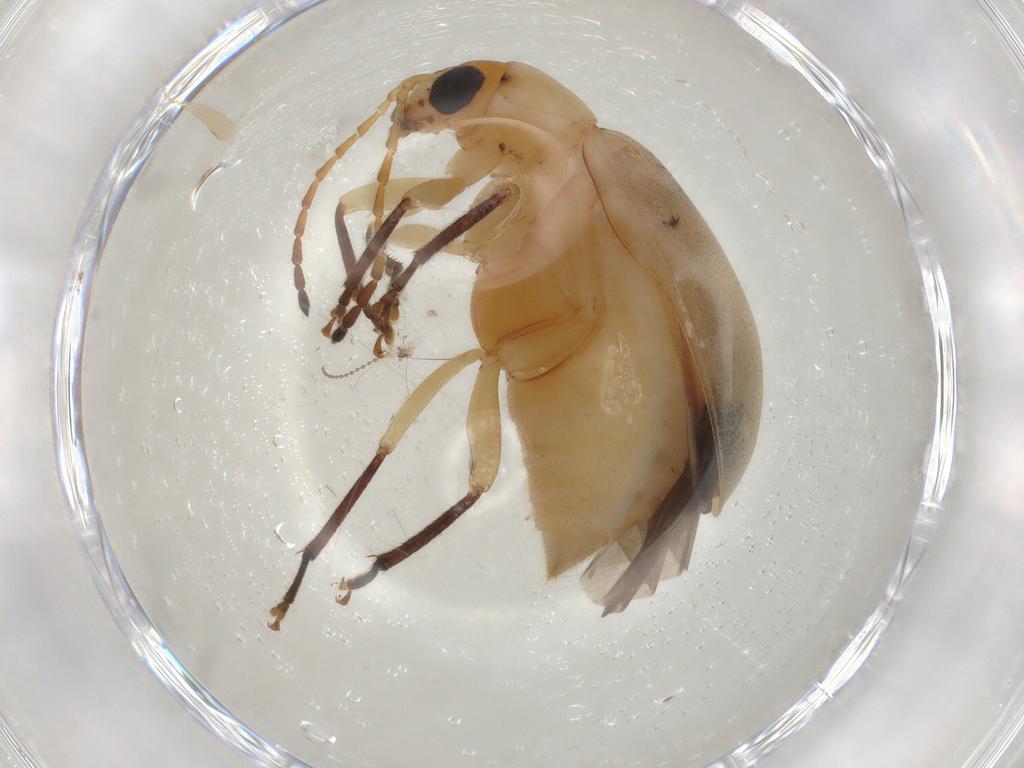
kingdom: Animalia
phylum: Arthropoda
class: Insecta
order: Coleoptera
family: Chrysomelidae
